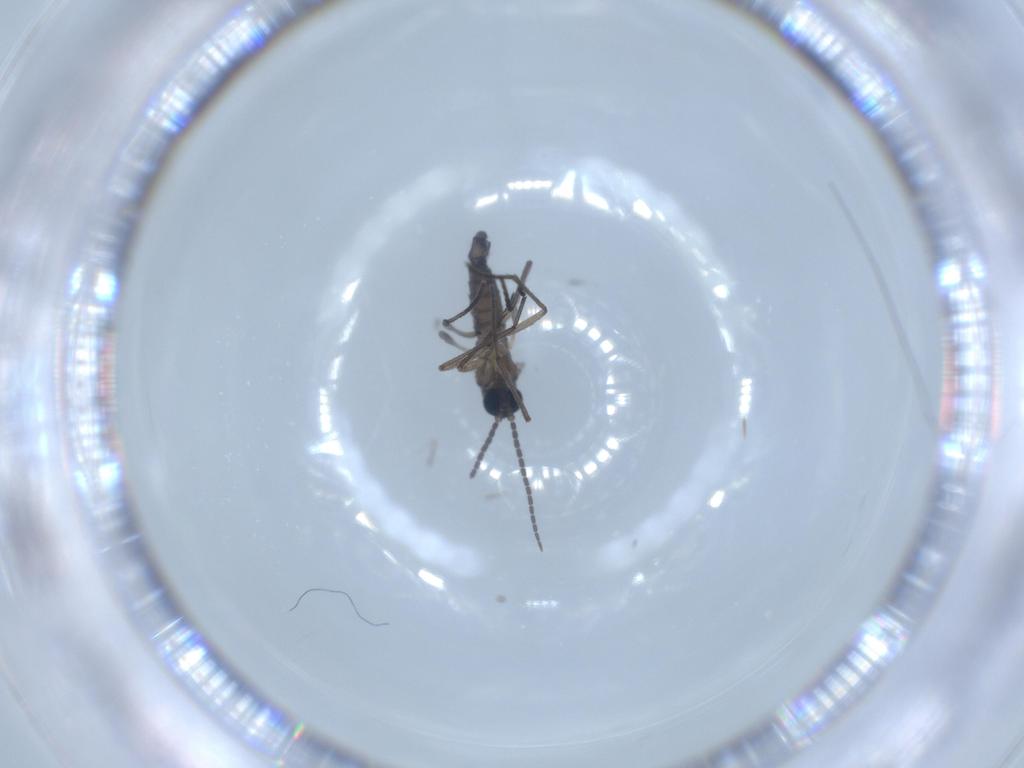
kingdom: Animalia
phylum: Arthropoda
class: Insecta
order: Diptera
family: Sciaridae
